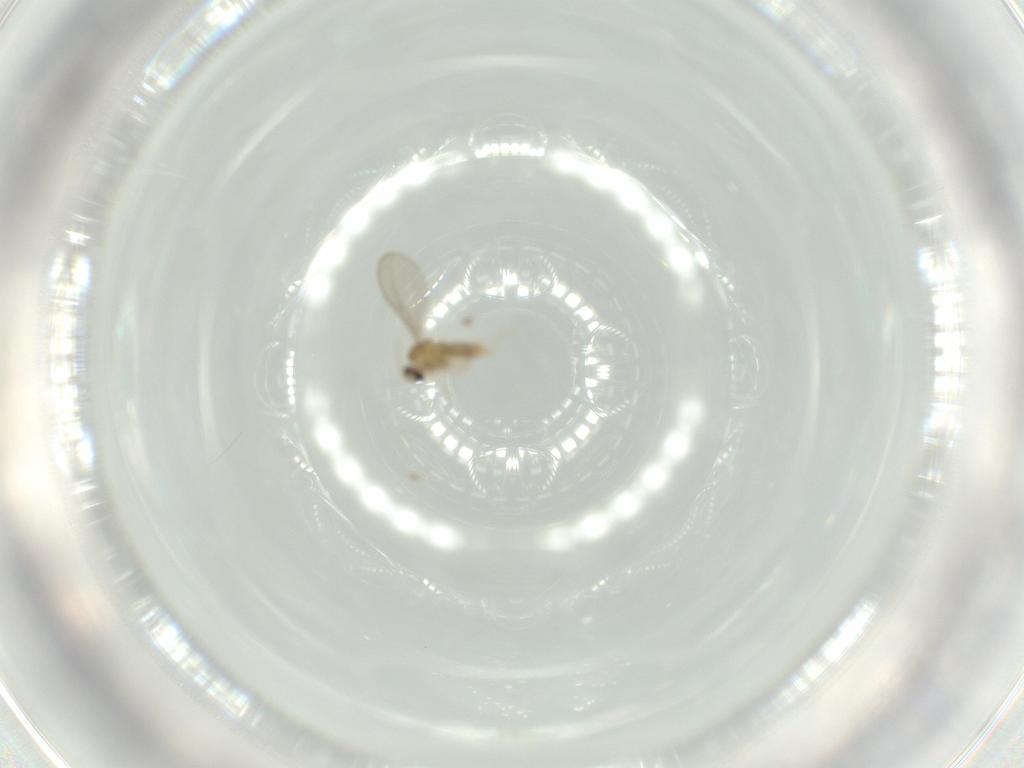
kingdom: Animalia
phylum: Arthropoda
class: Insecta
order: Diptera
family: Cecidomyiidae
